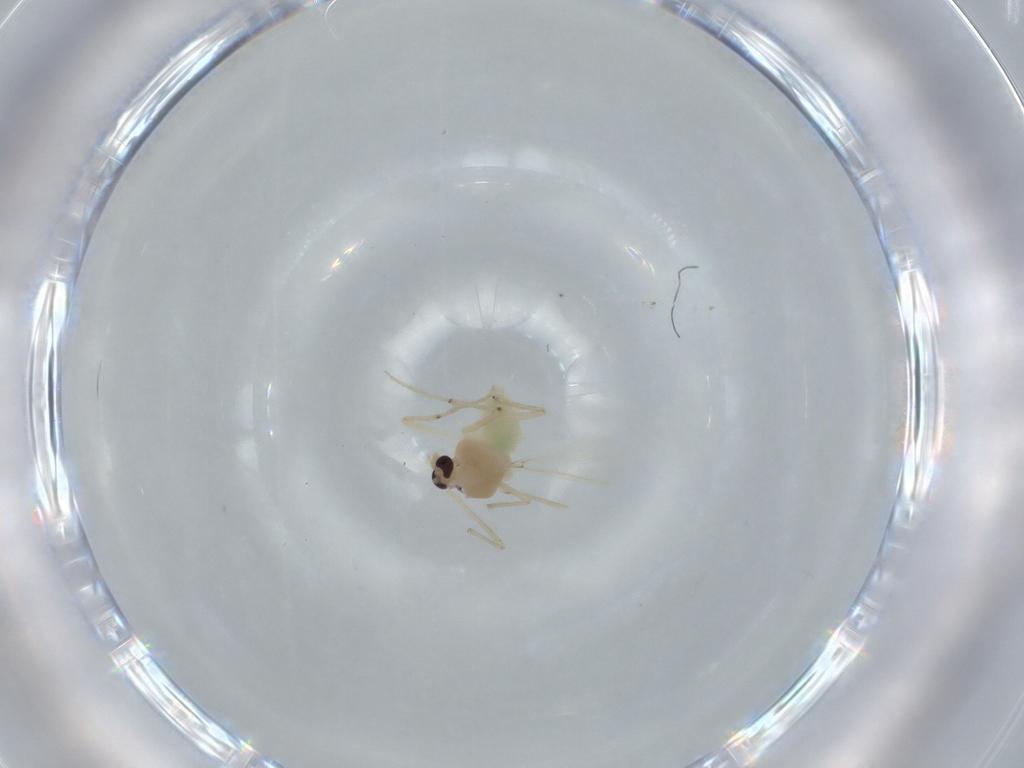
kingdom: Animalia
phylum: Arthropoda
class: Insecta
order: Diptera
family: Chironomidae
